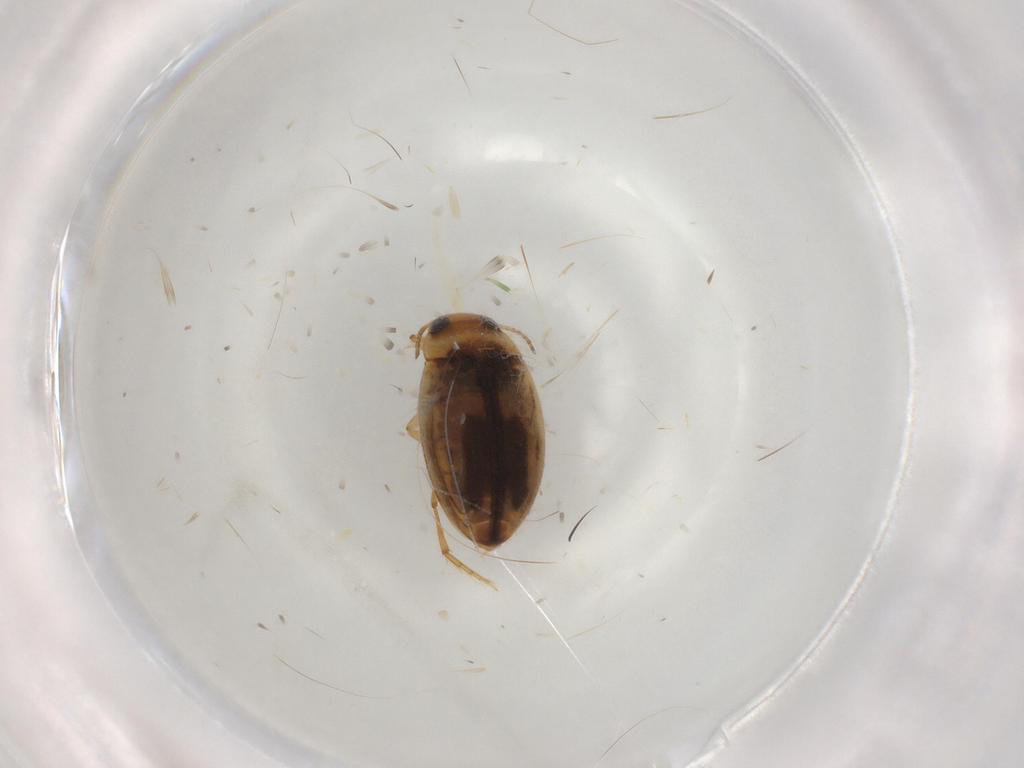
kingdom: Animalia
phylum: Arthropoda
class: Insecta
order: Coleoptera
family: Dytiscidae
